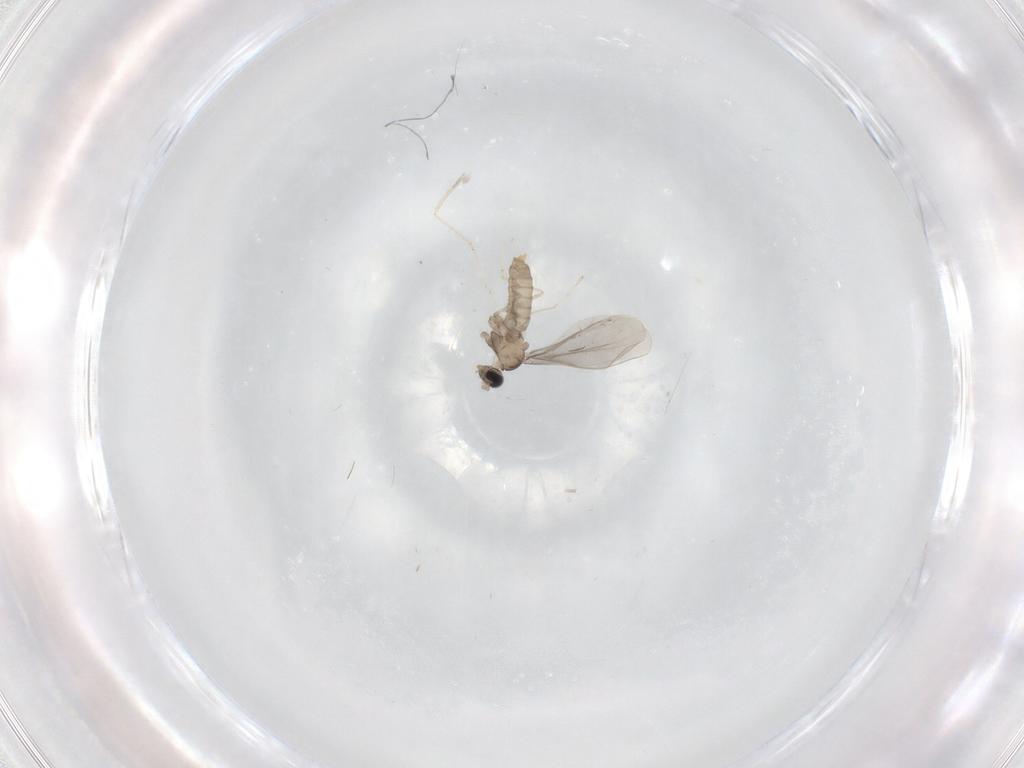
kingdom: Animalia
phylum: Arthropoda
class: Insecta
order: Diptera
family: Cecidomyiidae
